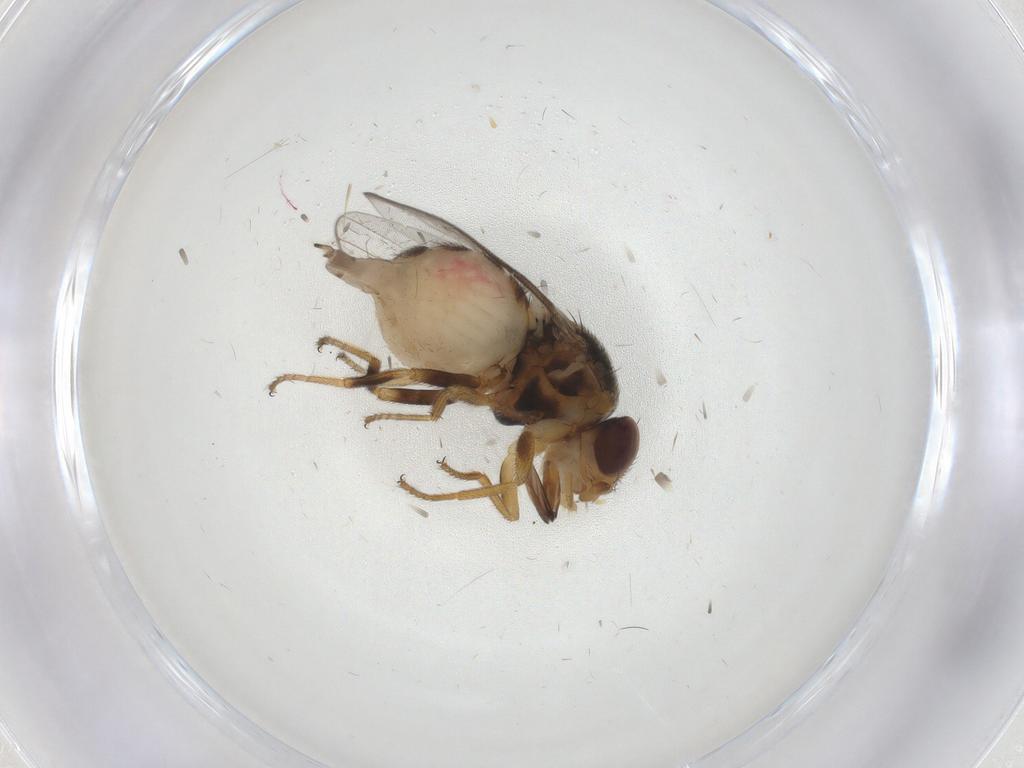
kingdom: Animalia
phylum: Arthropoda
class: Insecta
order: Diptera
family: Chloropidae
